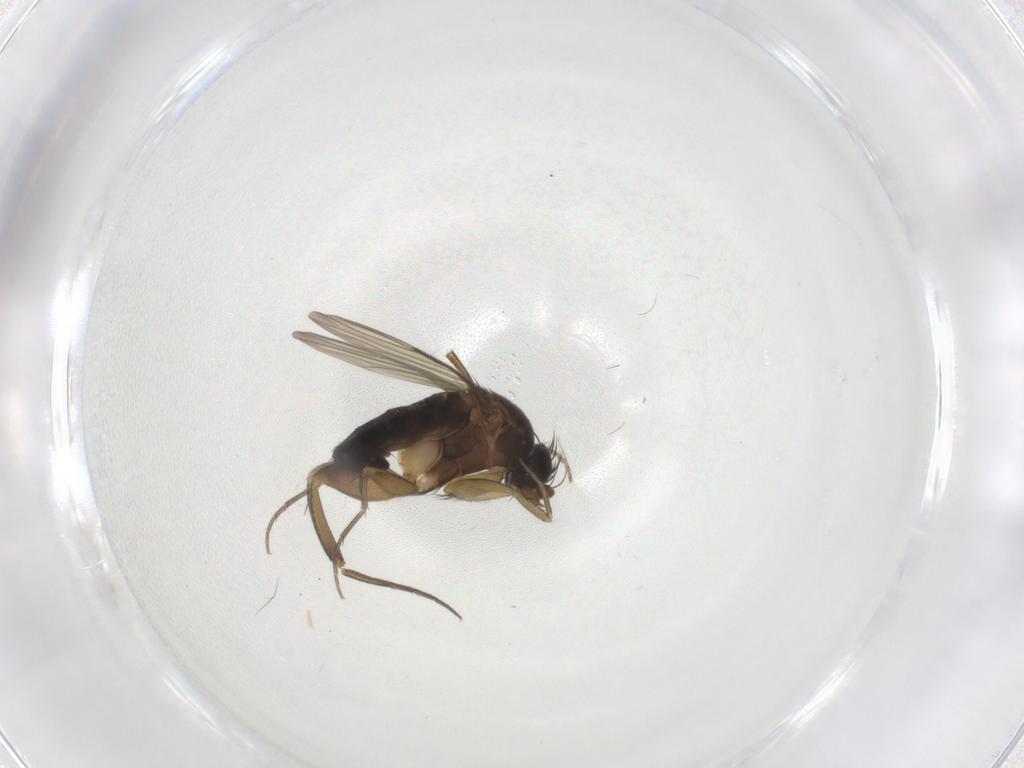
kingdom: Animalia
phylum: Arthropoda
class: Insecta
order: Diptera
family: Phoridae
